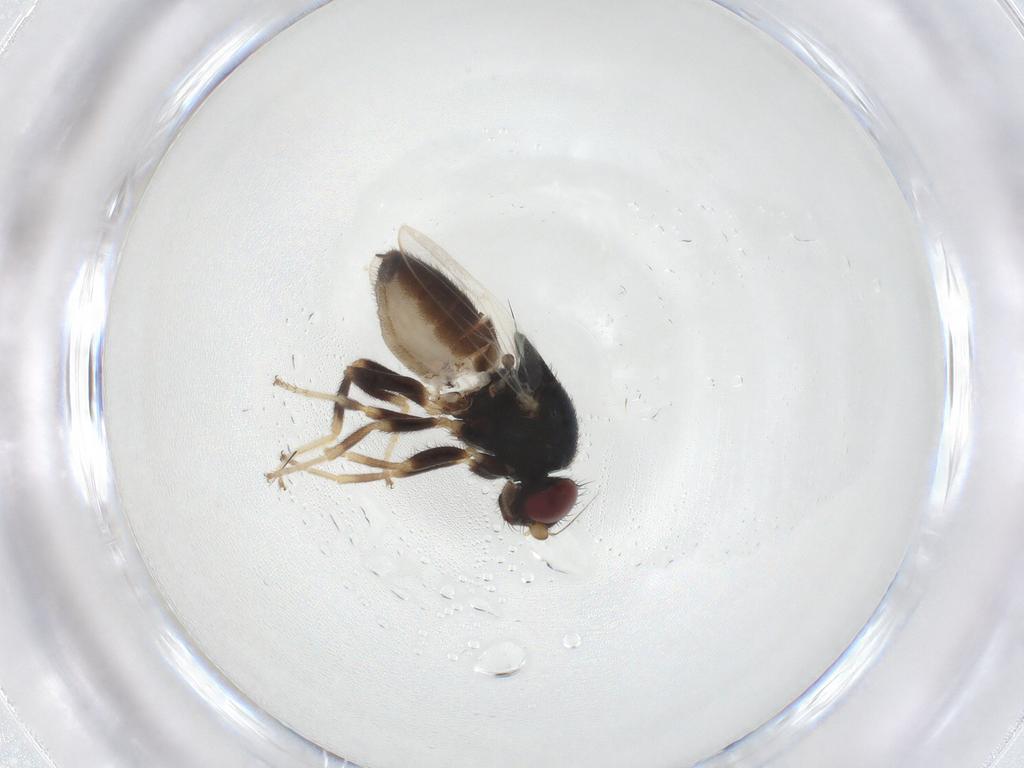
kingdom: Animalia
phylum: Arthropoda
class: Insecta
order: Diptera
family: Chloropidae
